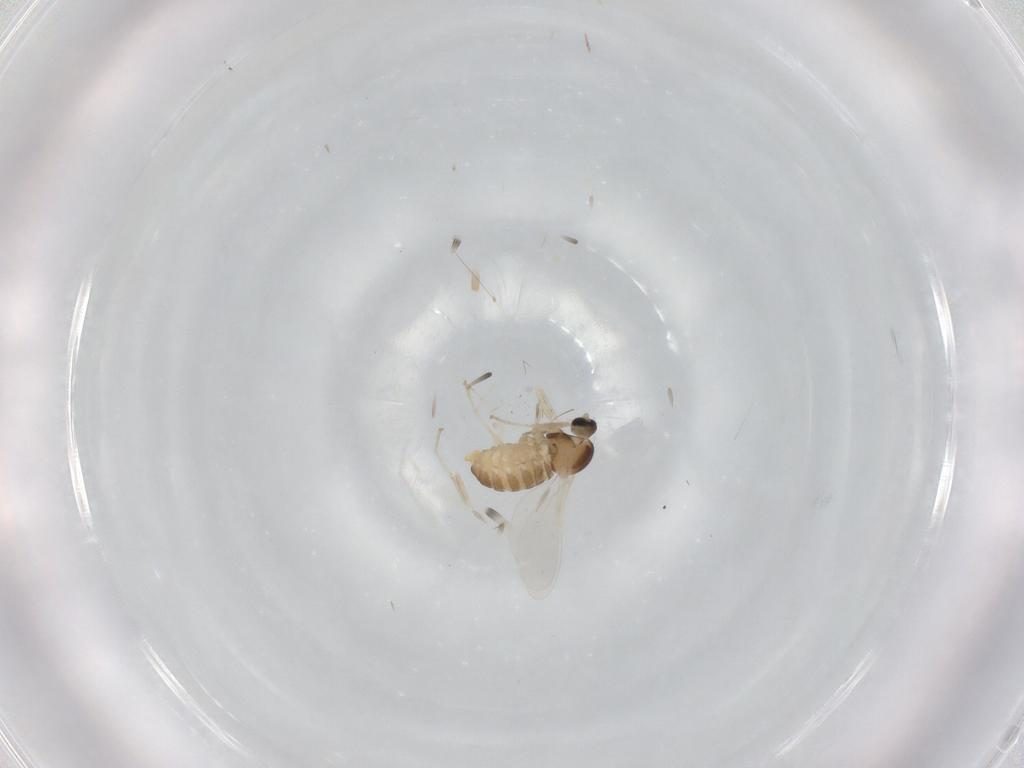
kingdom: Animalia
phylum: Arthropoda
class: Insecta
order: Diptera
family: Cecidomyiidae
